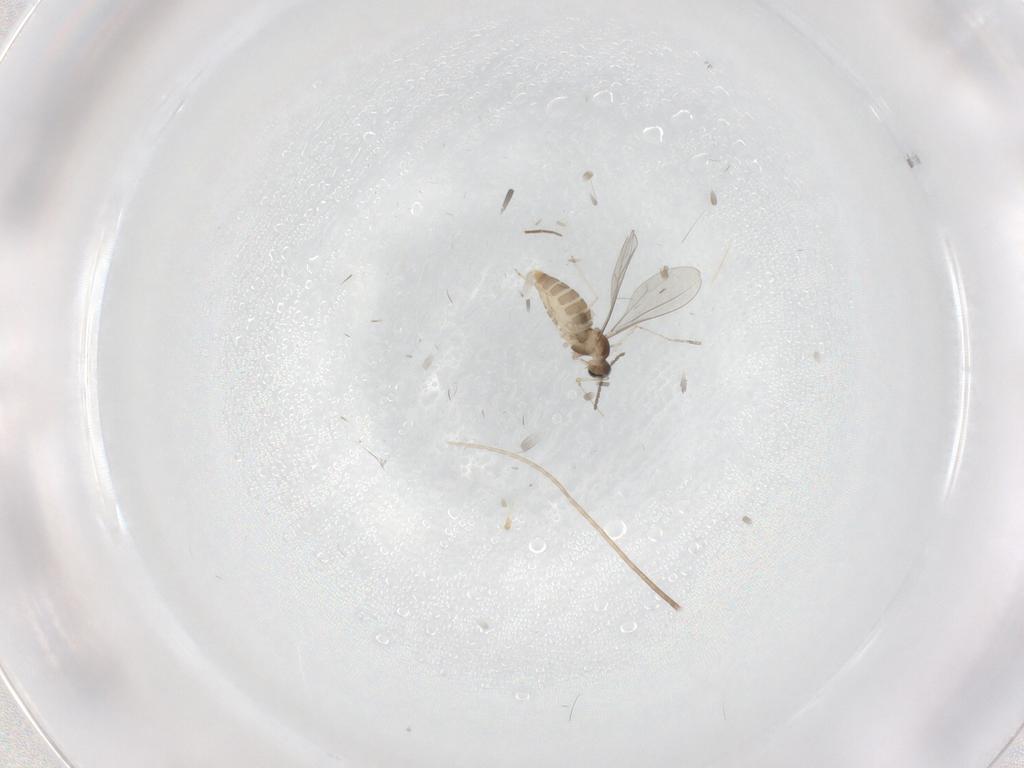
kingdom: Animalia
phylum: Arthropoda
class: Insecta
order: Diptera
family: Cecidomyiidae
